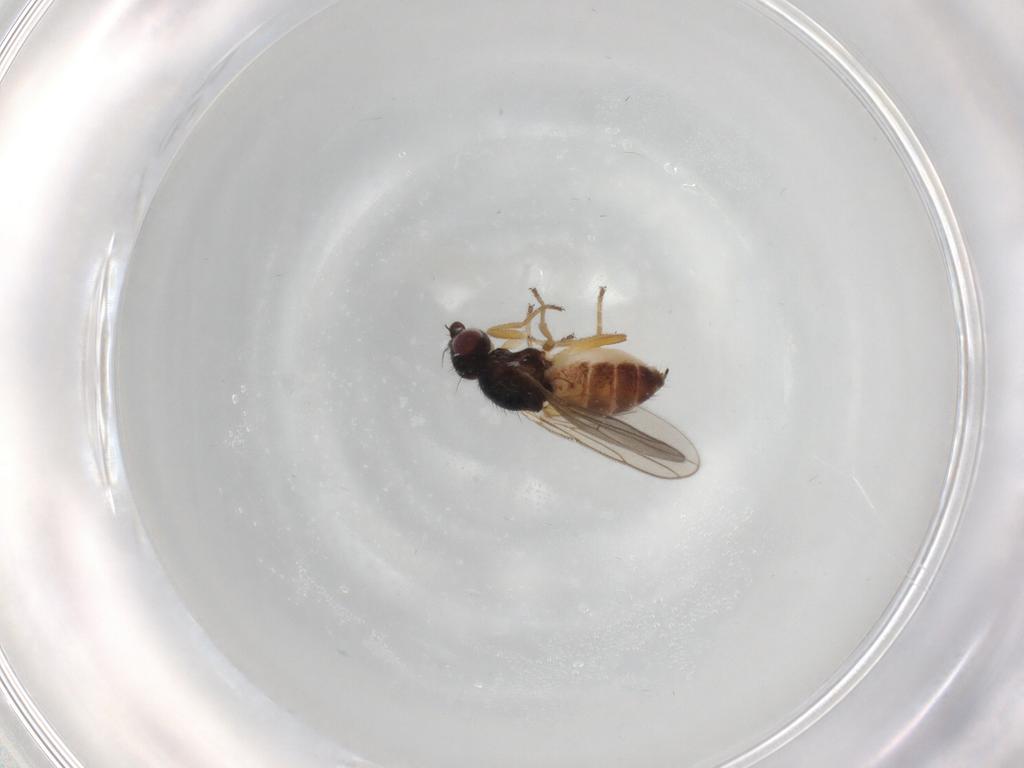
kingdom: Animalia
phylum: Arthropoda
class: Insecta
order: Diptera
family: Chloropidae
